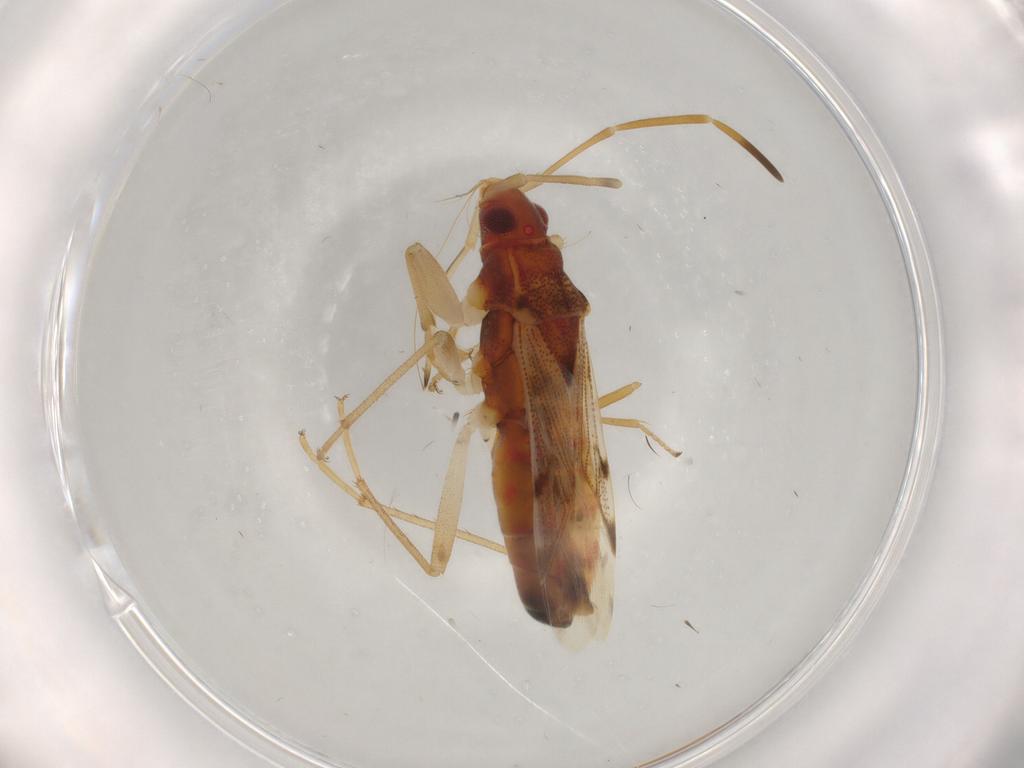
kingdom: Animalia
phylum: Arthropoda
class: Insecta
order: Hemiptera
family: Rhyparochromidae
